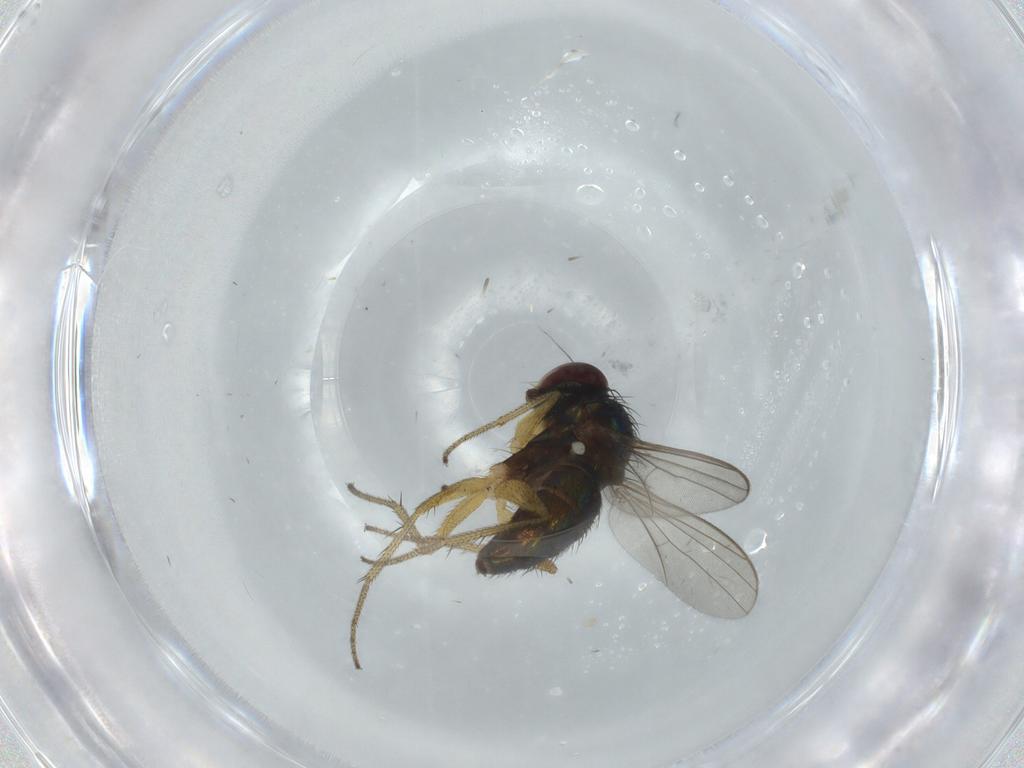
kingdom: Animalia
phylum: Arthropoda
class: Insecta
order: Diptera
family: Dolichopodidae
